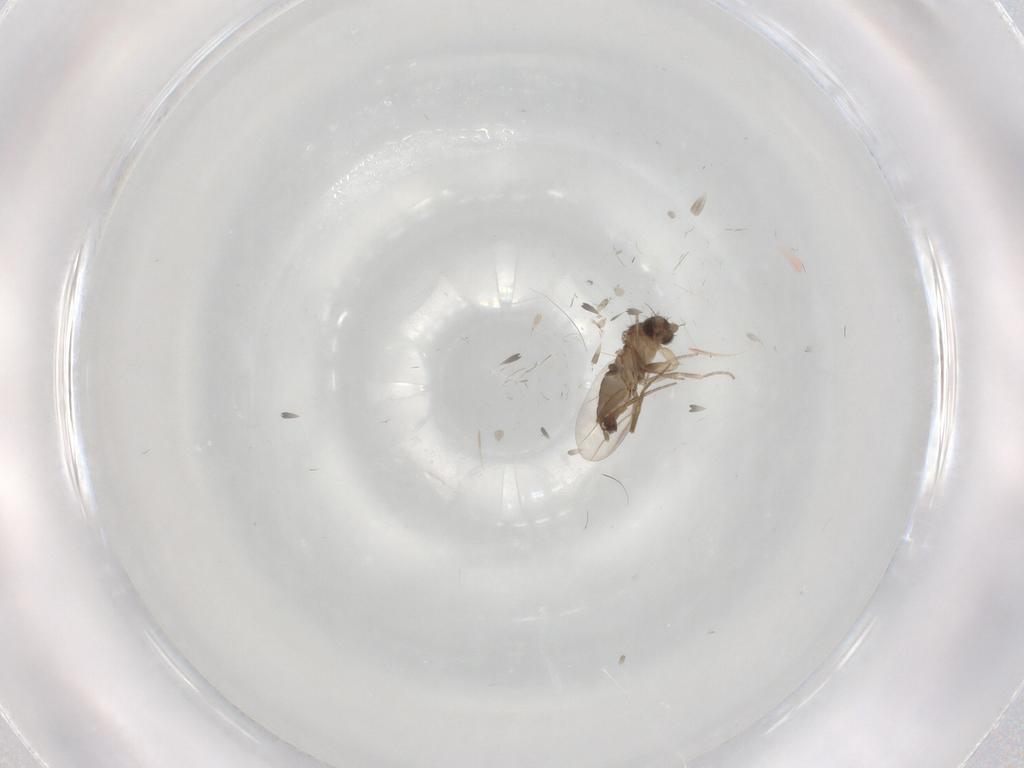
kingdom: Animalia
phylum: Arthropoda
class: Insecta
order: Diptera
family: Phoridae
